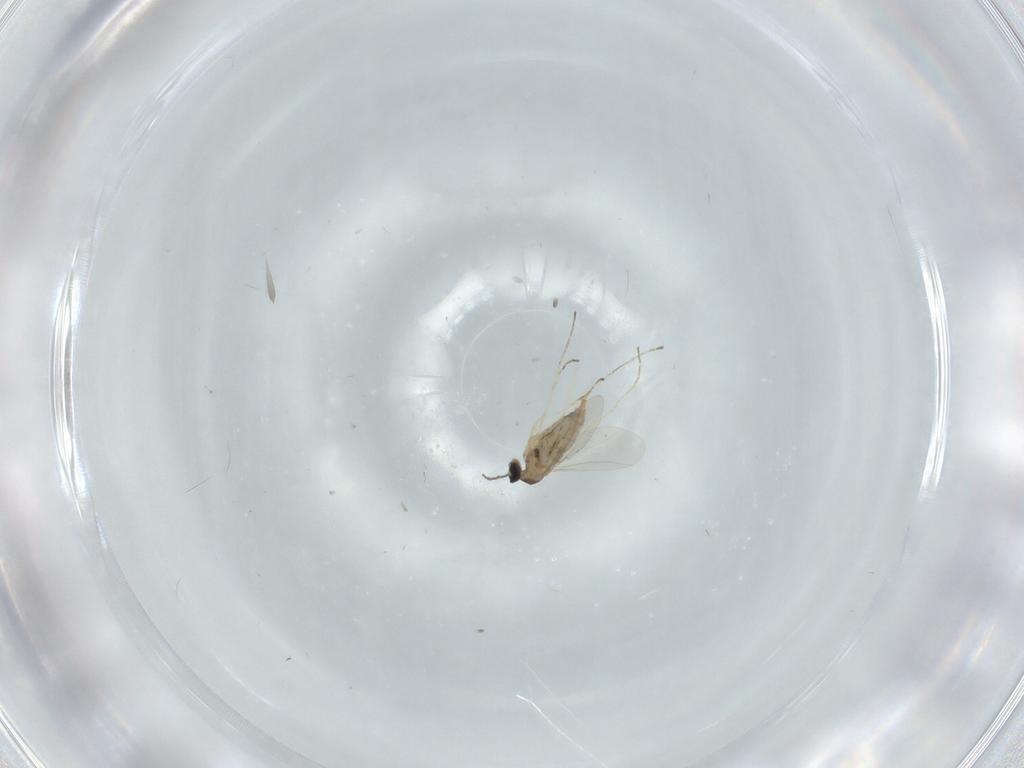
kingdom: Animalia
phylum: Arthropoda
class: Insecta
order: Diptera
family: Cecidomyiidae
